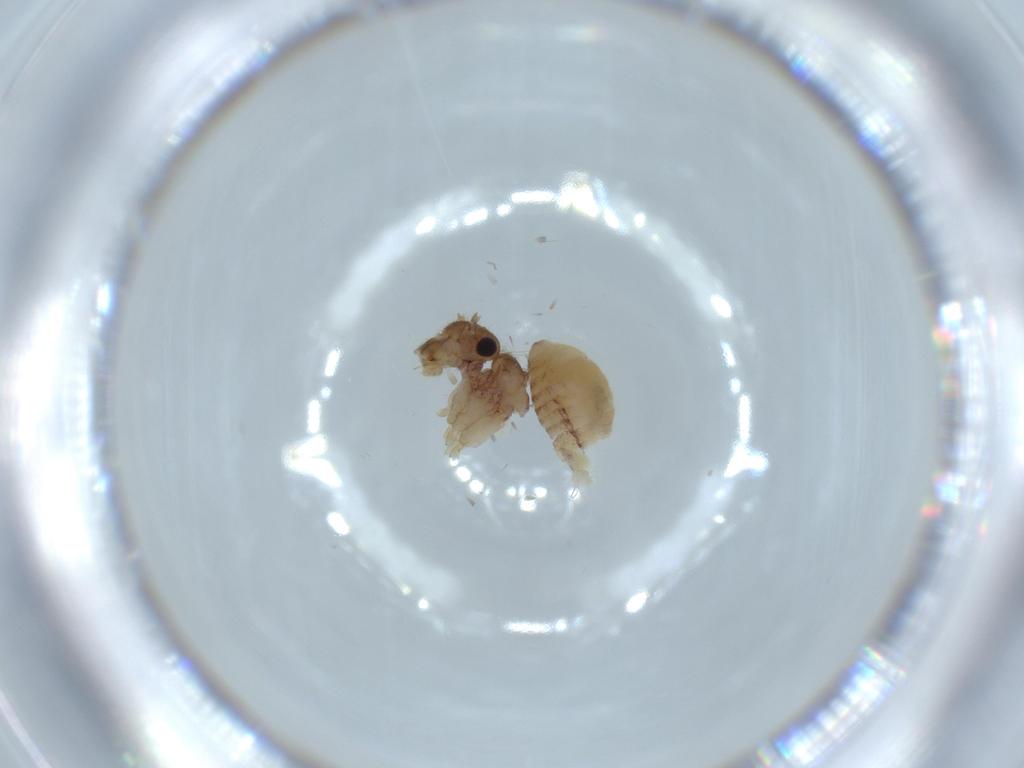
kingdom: Animalia
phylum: Arthropoda
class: Insecta
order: Psocodea
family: Cladiopsocidae
